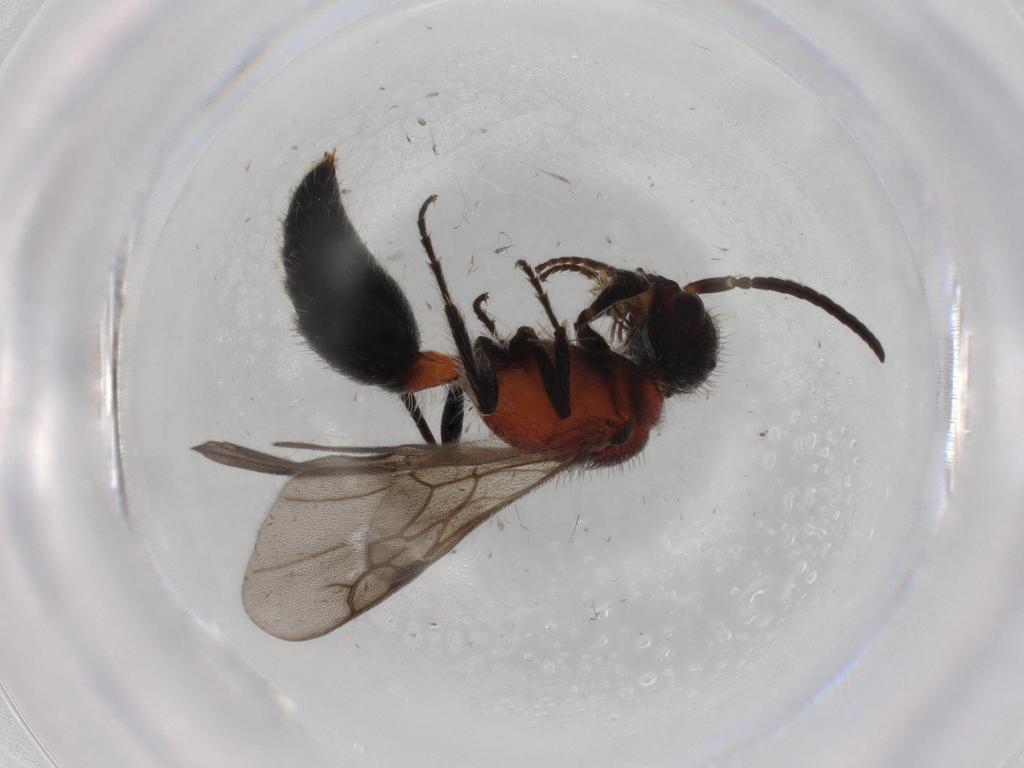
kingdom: Animalia
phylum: Arthropoda
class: Insecta
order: Hymenoptera
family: Mutillidae
